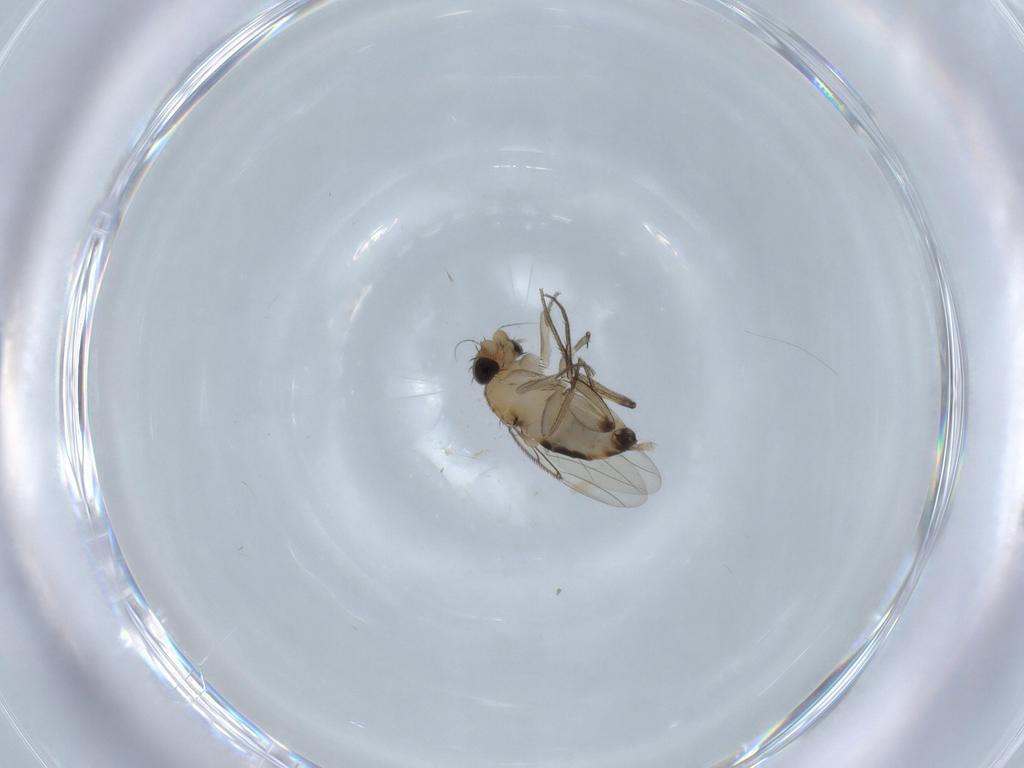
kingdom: Animalia
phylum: Arthropoda
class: Insecta
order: Diptera
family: Phoridae
